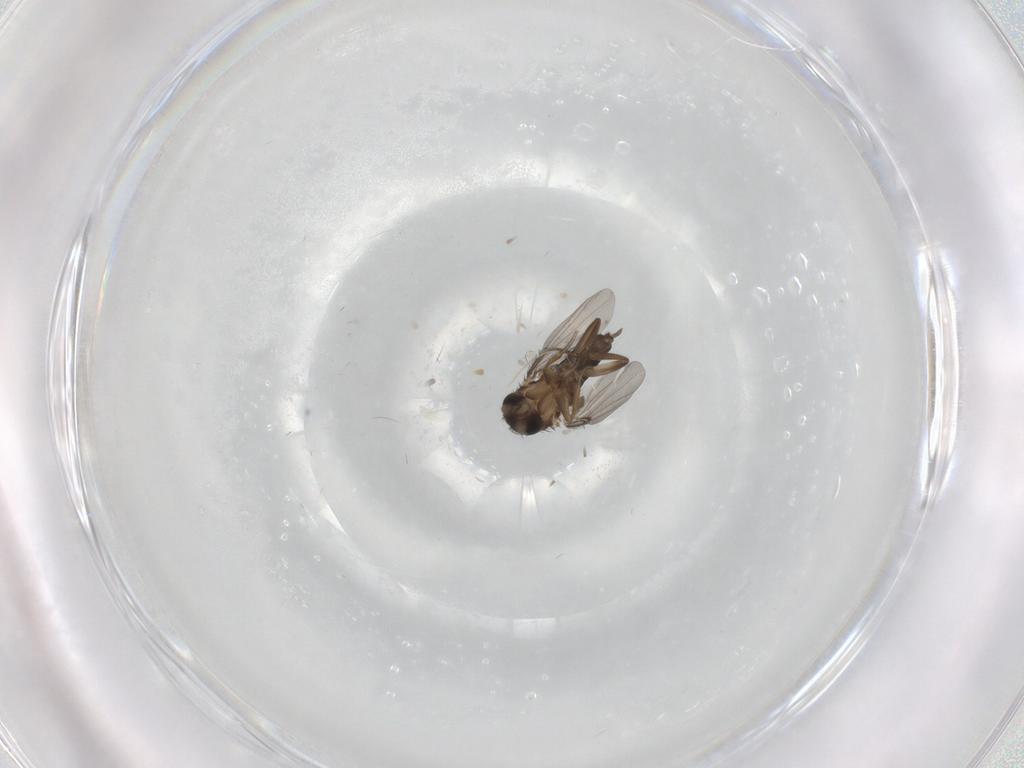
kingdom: Animalia
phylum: Arthropoda
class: Insecta
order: Diptera
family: Phoridae
